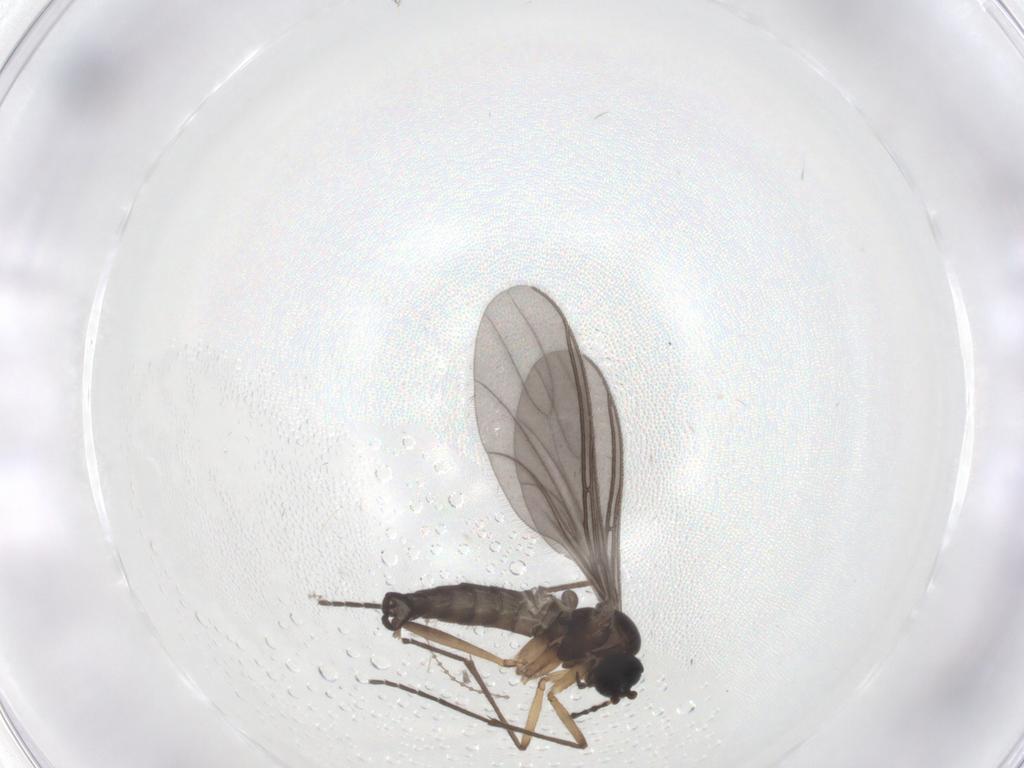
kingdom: Animalia
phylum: Arthropoda
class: Insecta
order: Diptera
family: Sciaridae
